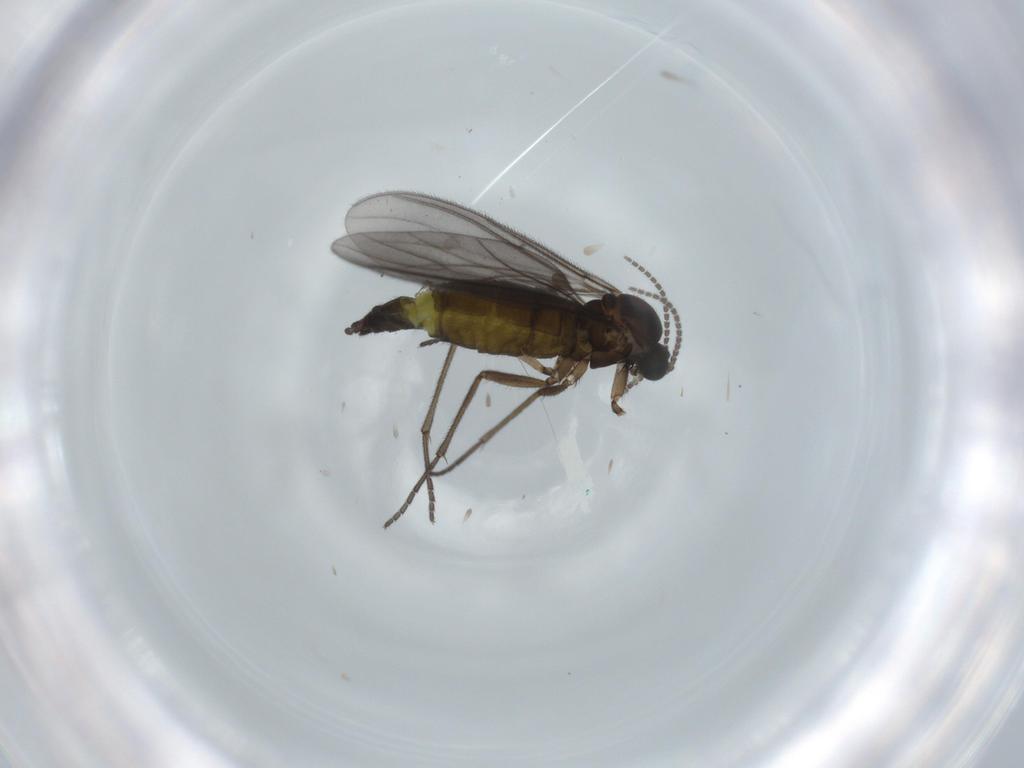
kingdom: Animalia
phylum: Arthropoda
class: Insecta
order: Diptera
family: Sciaridae
